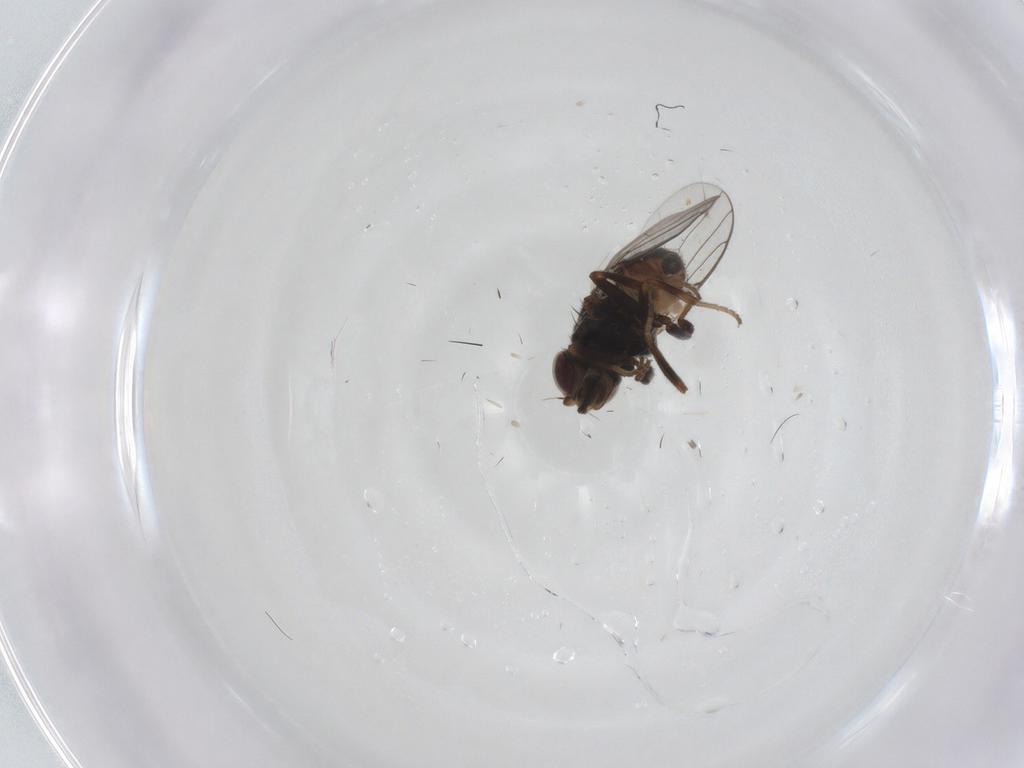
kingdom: Animalia
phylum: Arthropoda
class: Insecta
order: Diptera
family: Chloropidae
